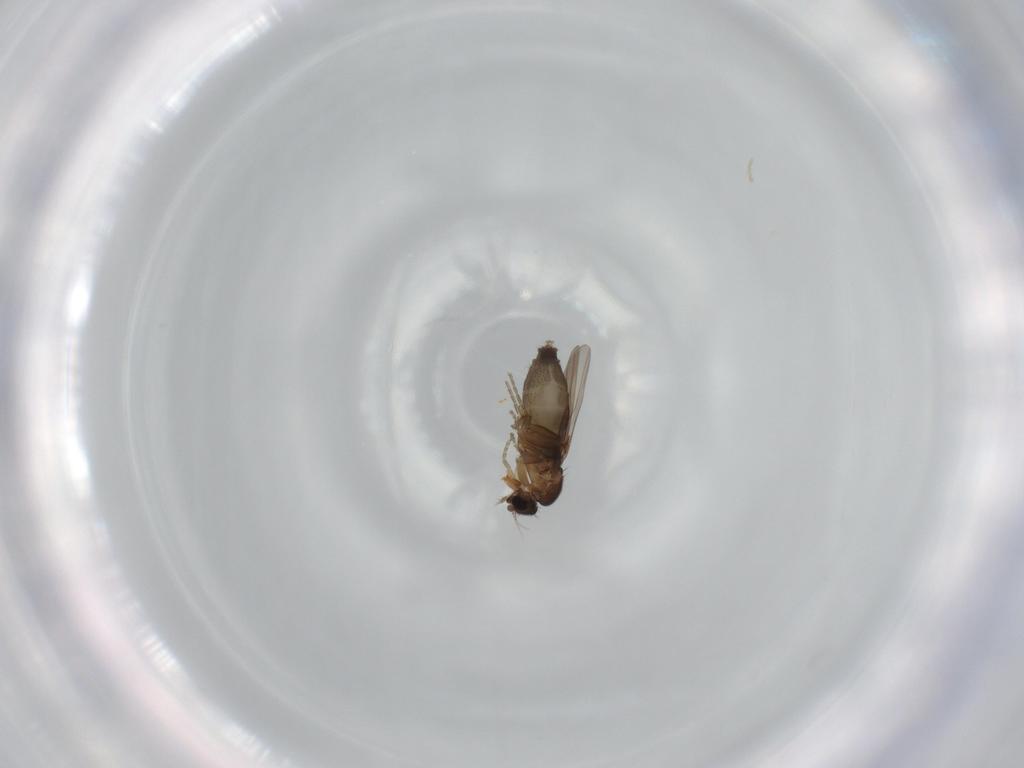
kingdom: Animalia
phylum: Arthropoda
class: Insecta
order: Diptera
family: Phoridae
